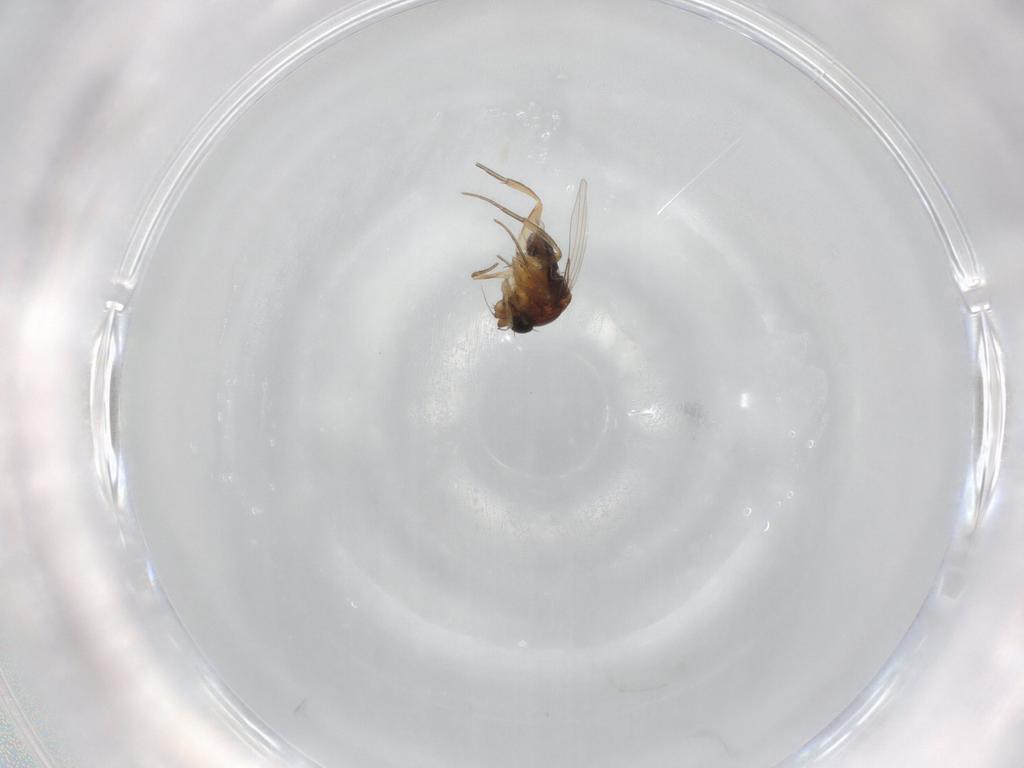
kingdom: Animalia
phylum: Arthropoda
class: Insecta
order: Diptera
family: Phoridae
